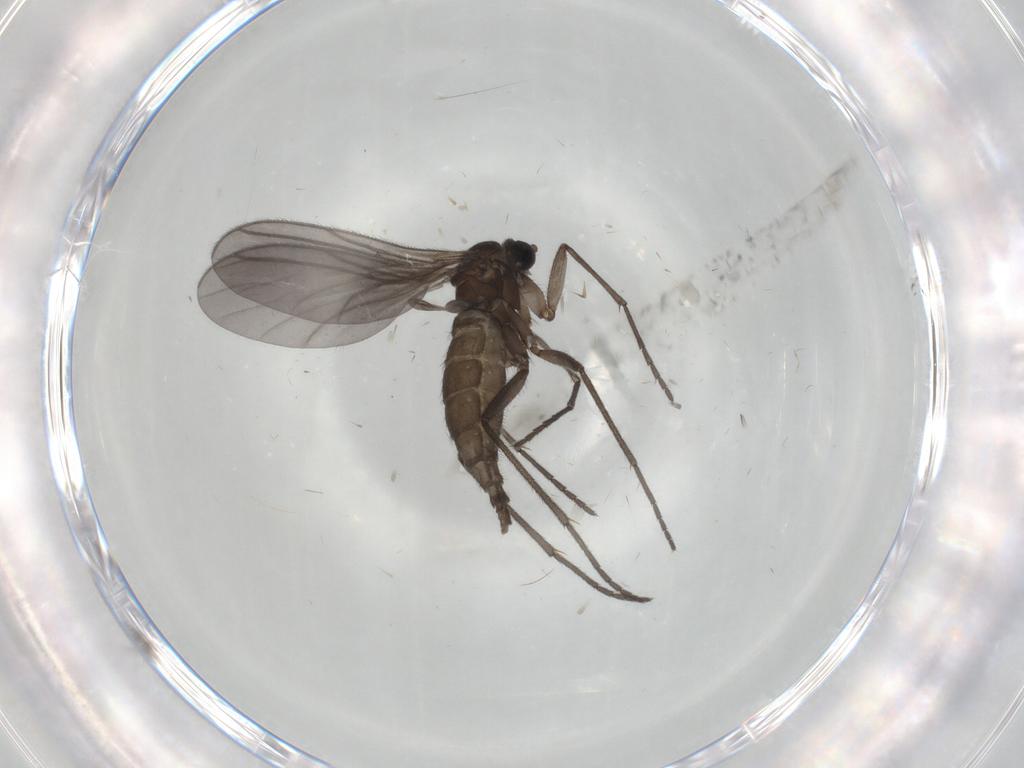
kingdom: Animalia
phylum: Arthropoda
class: Insecta
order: Diptera
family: Sciaridae
